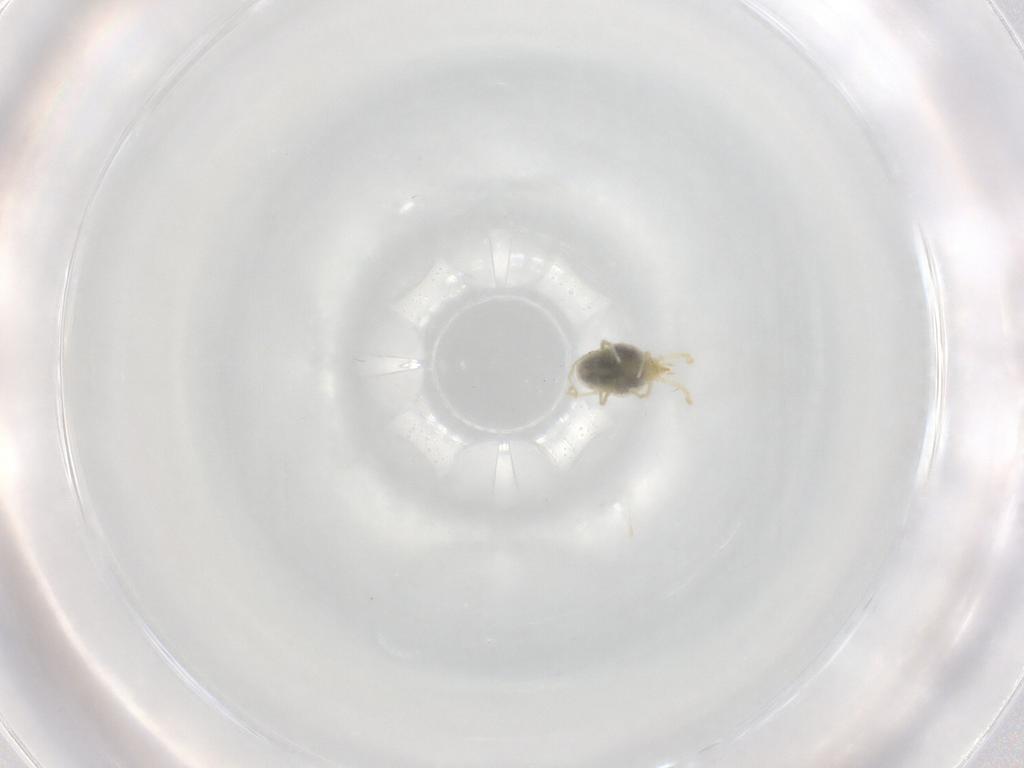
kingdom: Animalia
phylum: Arthropoda
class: Arachnida
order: Trombidiformes
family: Erythraeidae
